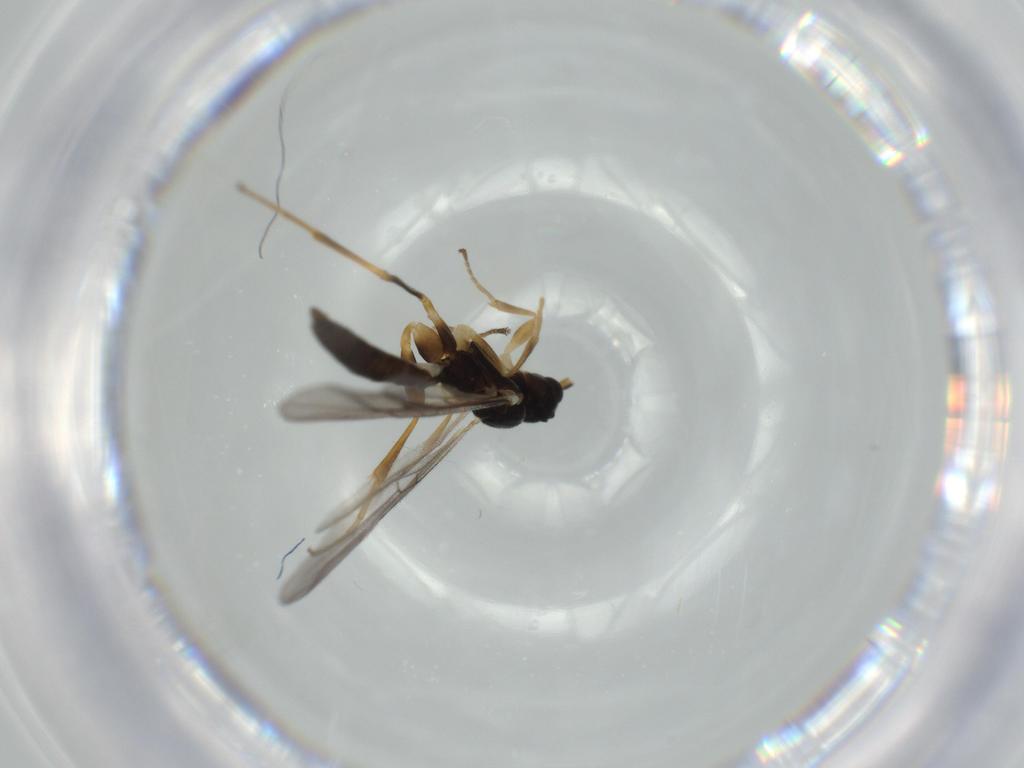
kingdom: Animalia
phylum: Arthropoda
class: Insecta
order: Hymenoptera
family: Ichneumonidae
